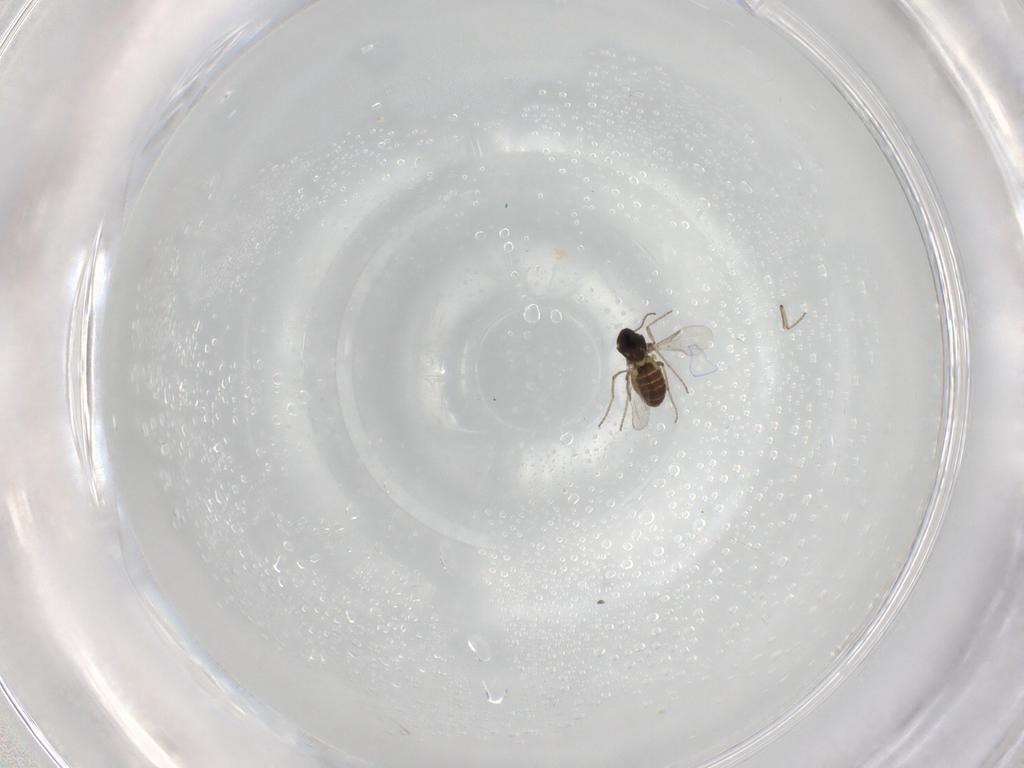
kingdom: Animalia
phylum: Arthropoda
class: Insecta
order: Diptera
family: Ceratopogonidae
